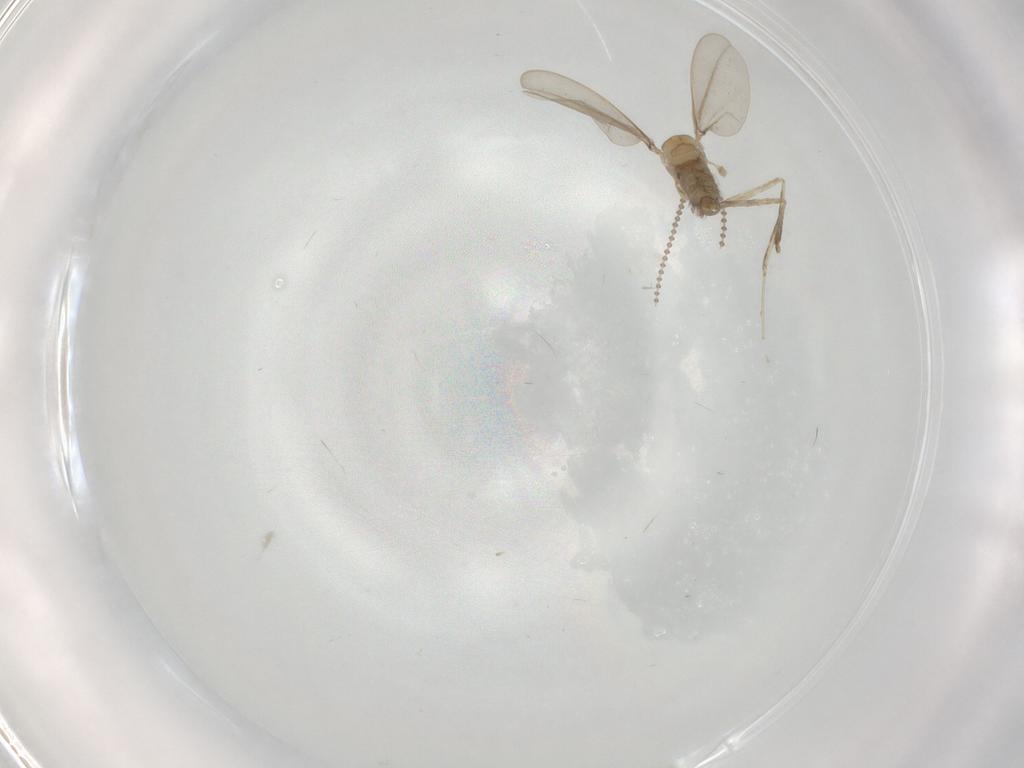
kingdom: Animalia
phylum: Arthropoda
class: Insecta
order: Diptera
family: Cecidomyiidae
